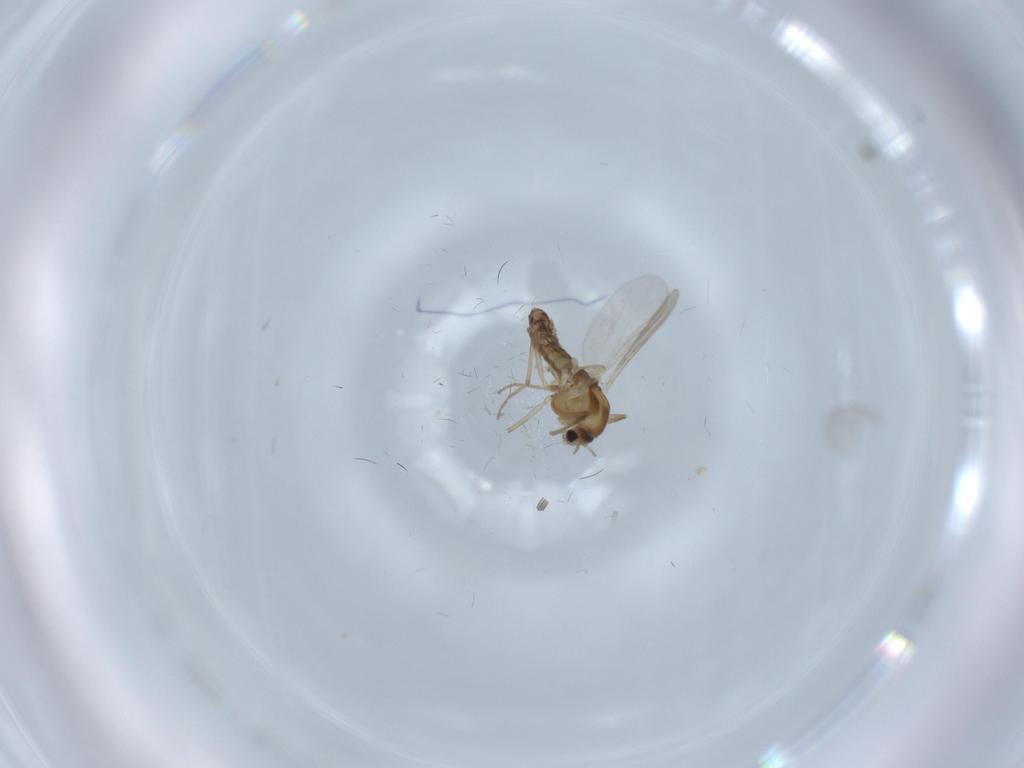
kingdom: Animalia
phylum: Arthropoda
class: Insecta
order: Diptera
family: Chironomidae
